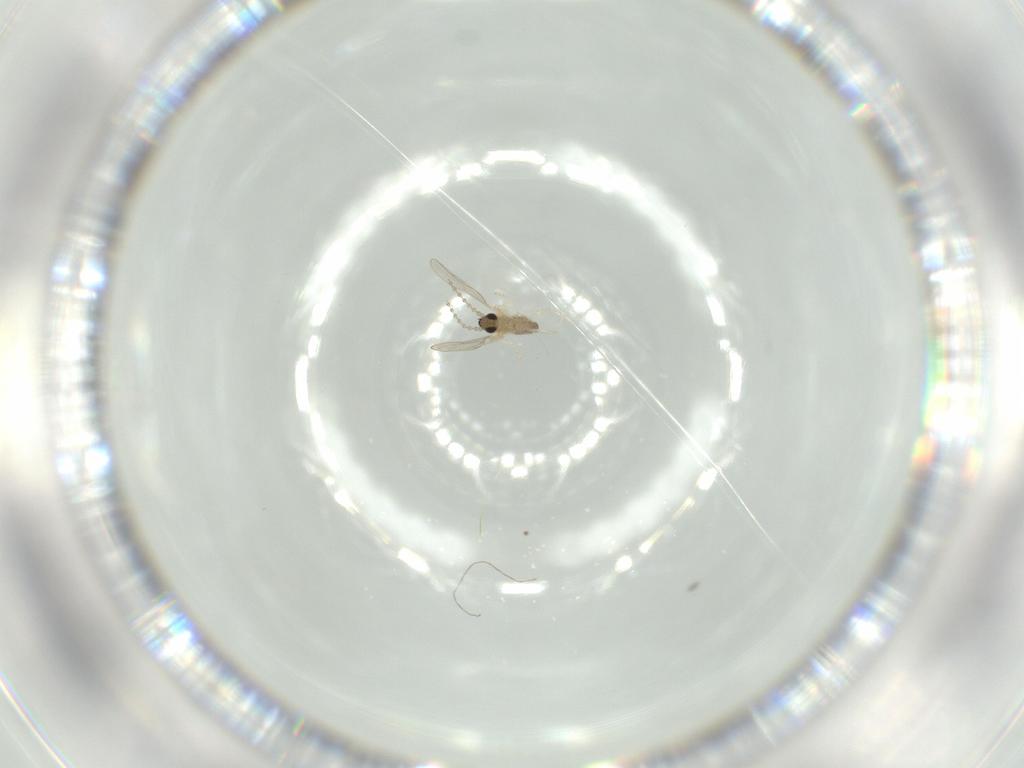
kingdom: Animalia
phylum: Arthropoda
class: Insecta
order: Diptera
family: Cecidomyiidae
